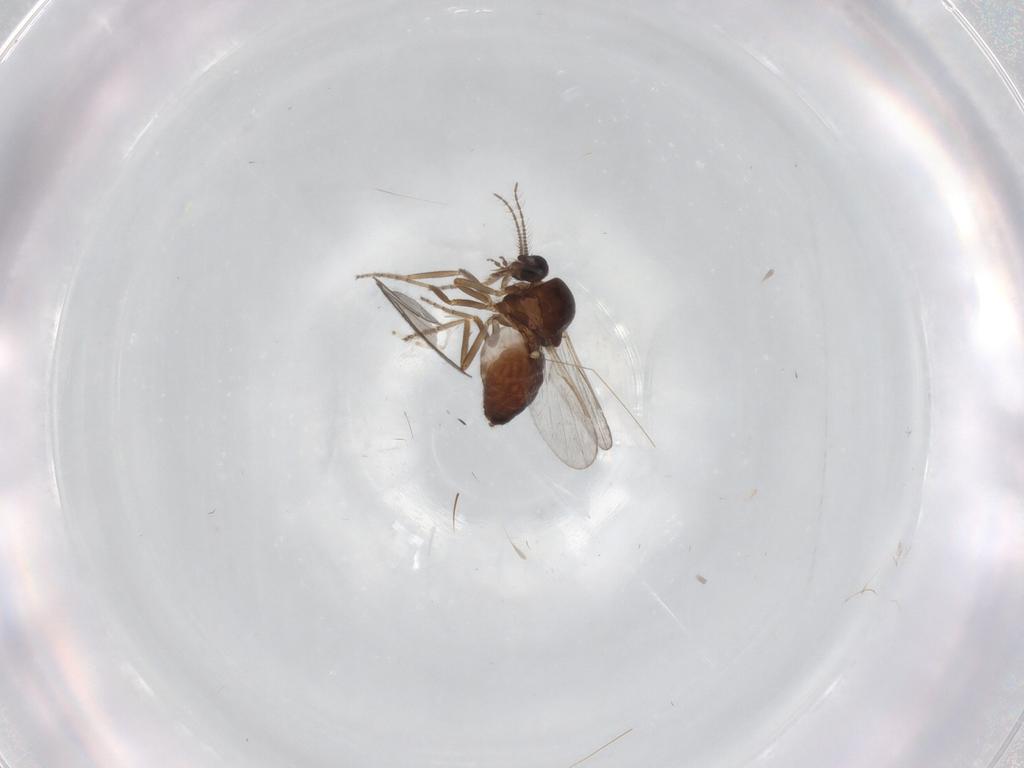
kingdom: Animalia
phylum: Arthropoda
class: Insecta
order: Diptera
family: Cecidomyiidae
